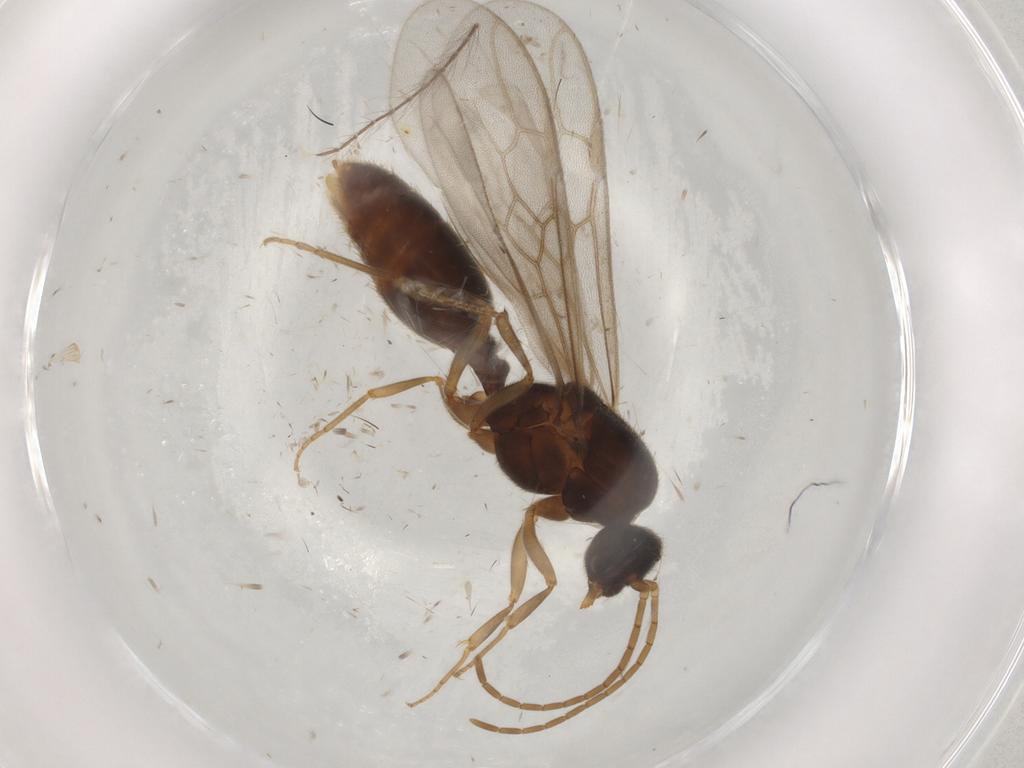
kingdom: Animalia
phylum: Arthropoda
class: Insecta
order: Hymenoptera
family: Formicidae
